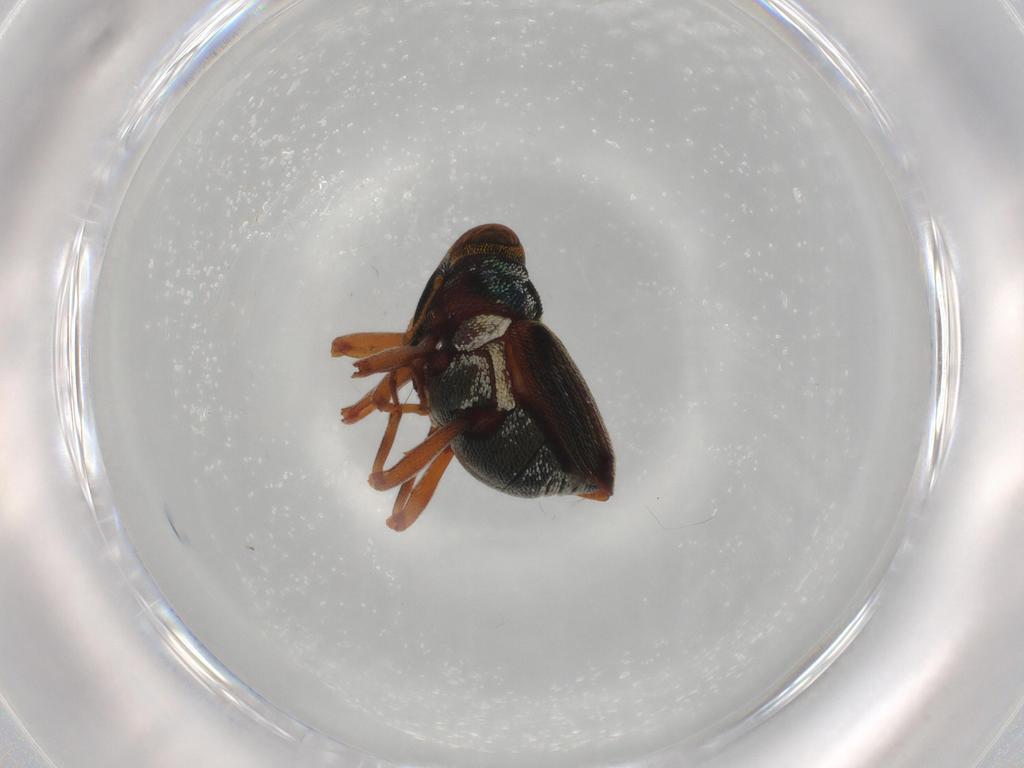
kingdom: Animalia
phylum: Arthropoda
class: Insecta
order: Coleoptera
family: Curculionidae
